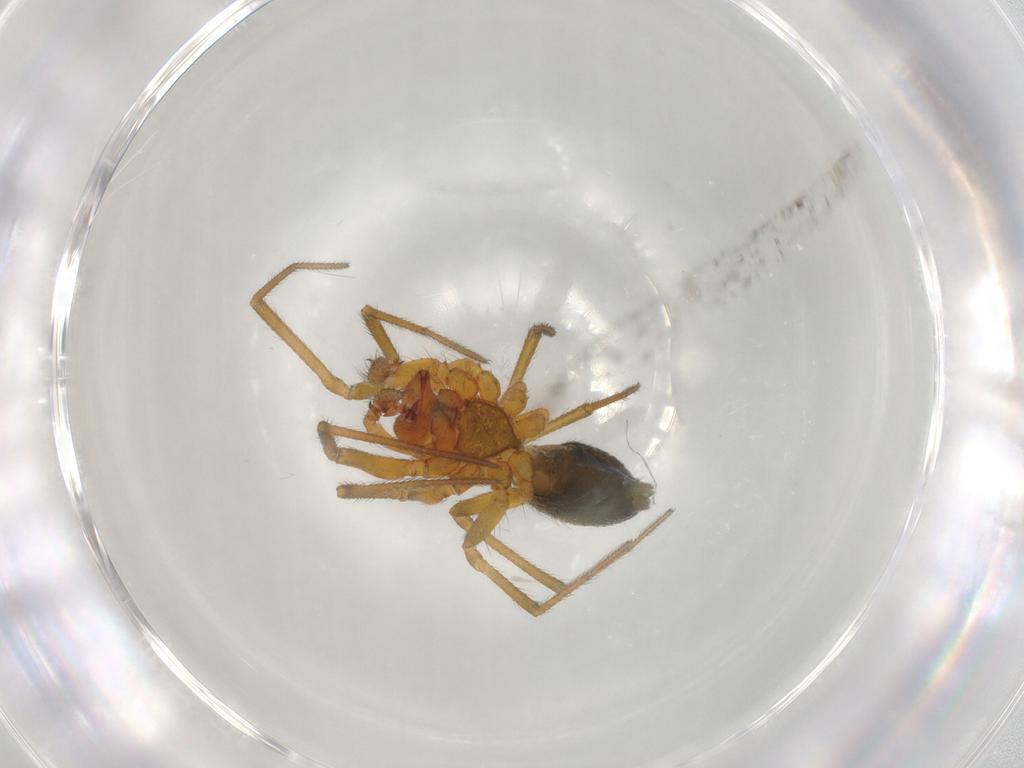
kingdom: Animalia
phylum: Arthropoda
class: Arachnida
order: Araneae
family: Linyphiidae
